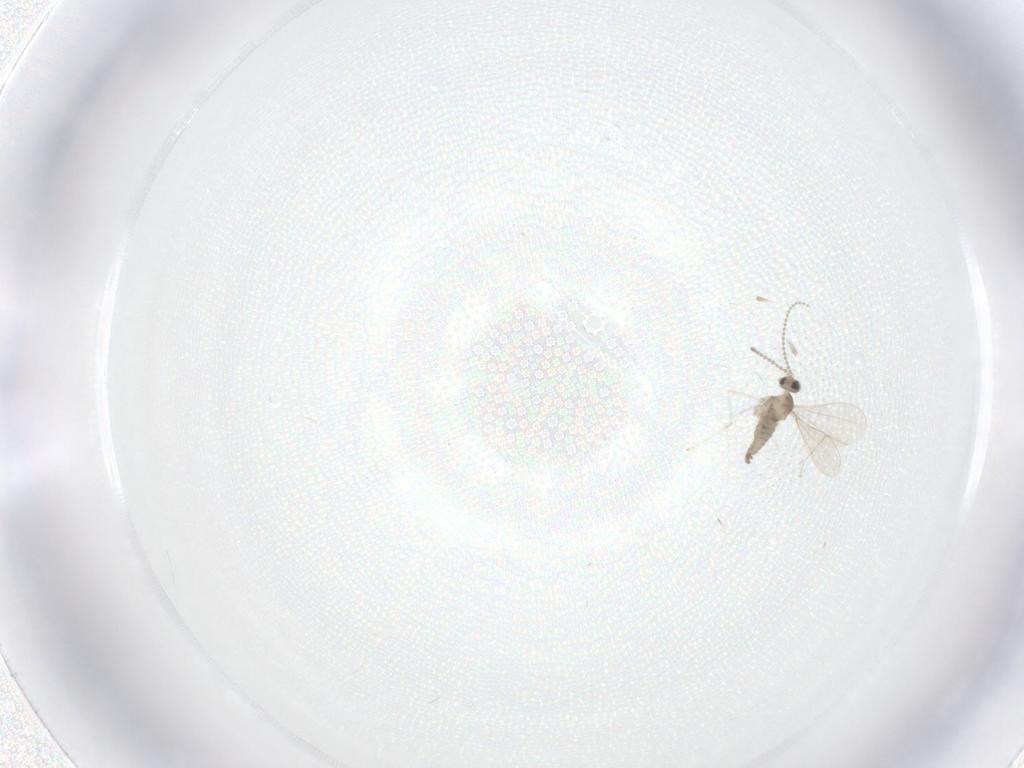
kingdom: Animalia
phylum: Arthropoda
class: Insecta
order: Diptera
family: Cecidomyiidae
